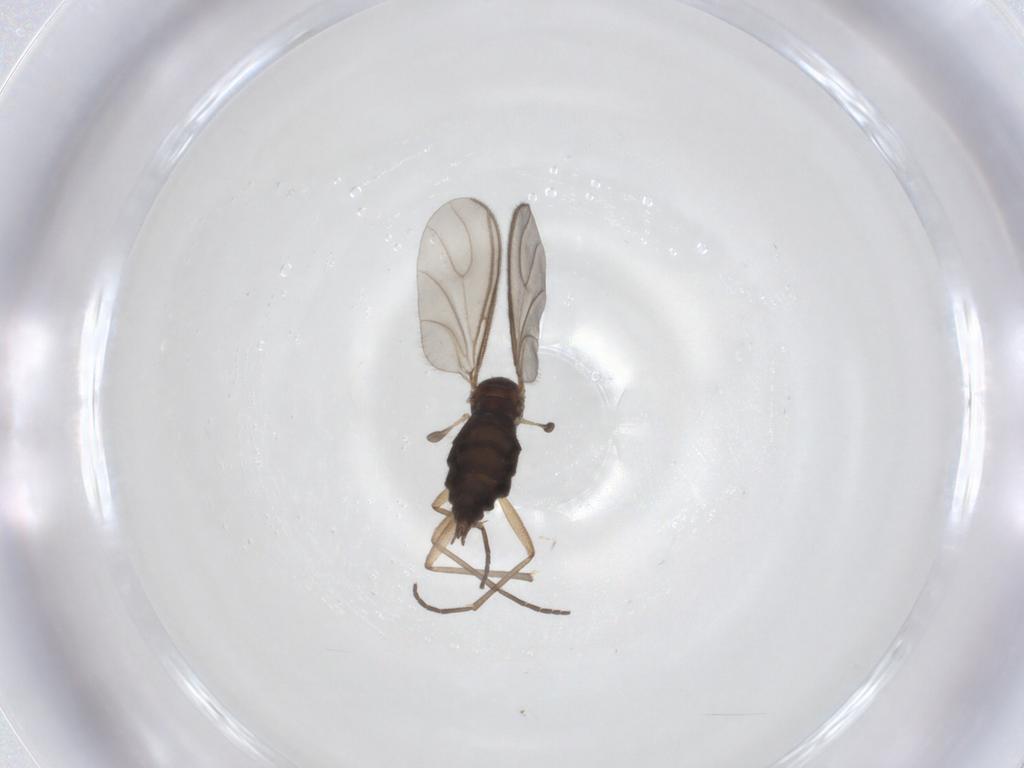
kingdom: Animalia
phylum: Arthropoda
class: Insecta
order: Diptera
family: Sciaridae
